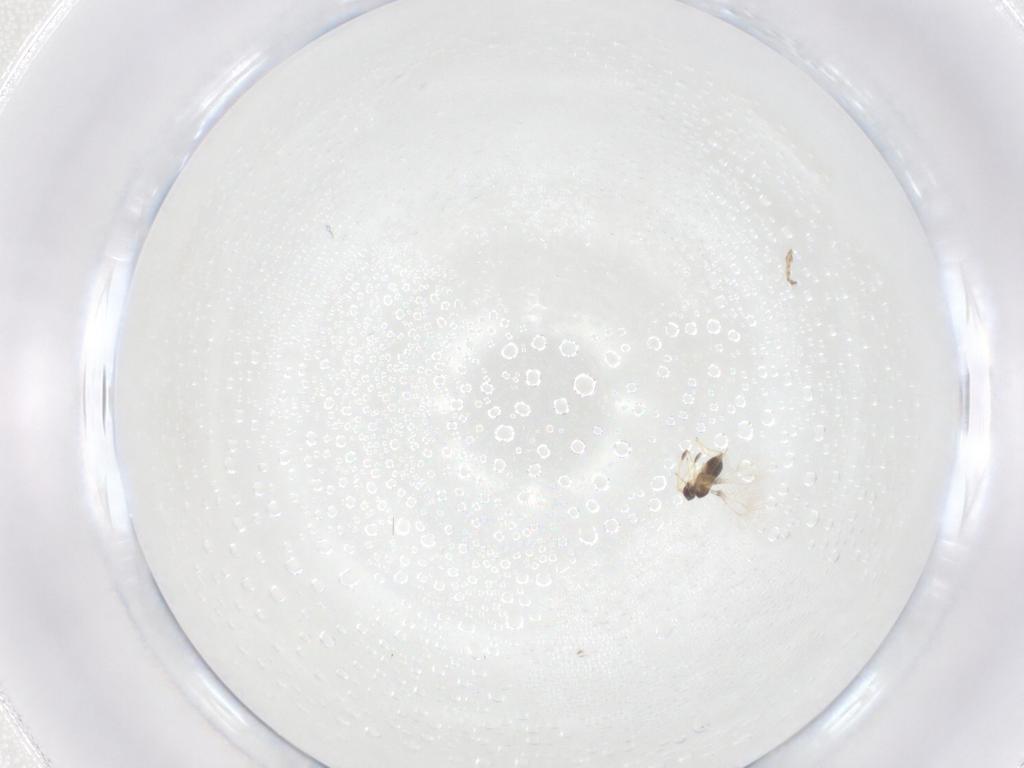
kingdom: Animalia
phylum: Arthropoda
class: Insecta
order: Hymenoptera
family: Mymaridae
